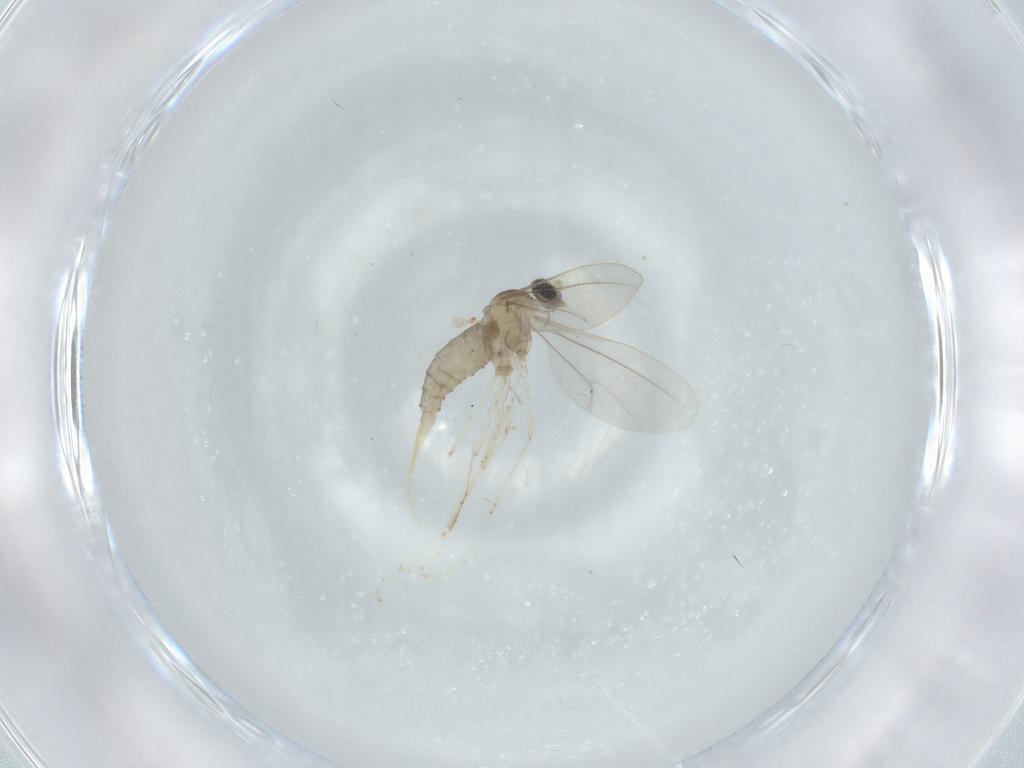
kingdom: Animalia
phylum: Arthropoda
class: Insecta
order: Diptera
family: Cecidomyiidae
